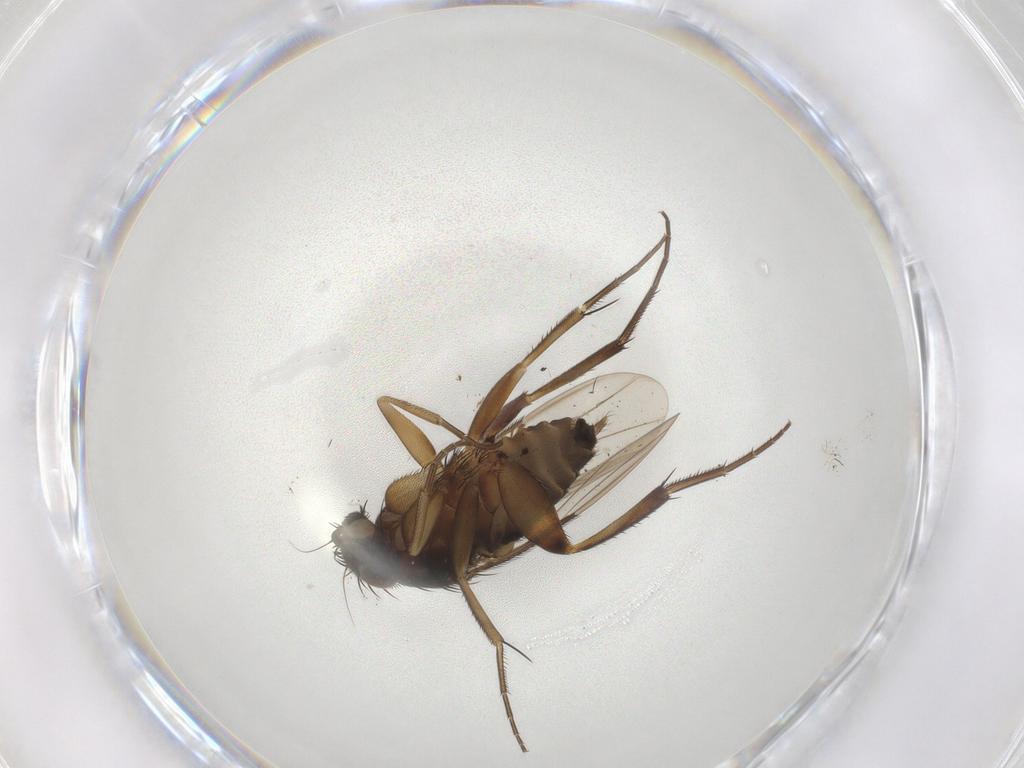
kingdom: Animalia
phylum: Arthropoda
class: Insecta
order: Diptera
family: Phoridae
